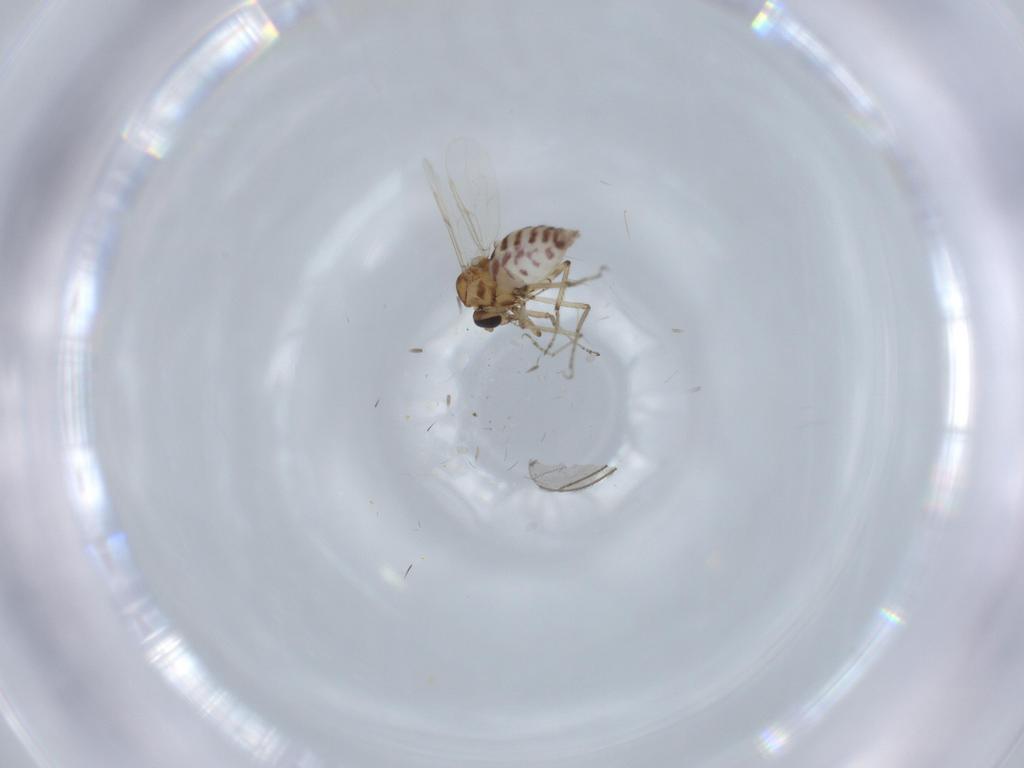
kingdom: Animalia
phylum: Arthropoda
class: Insecta
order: Diptera
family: Ceratopogonidae
